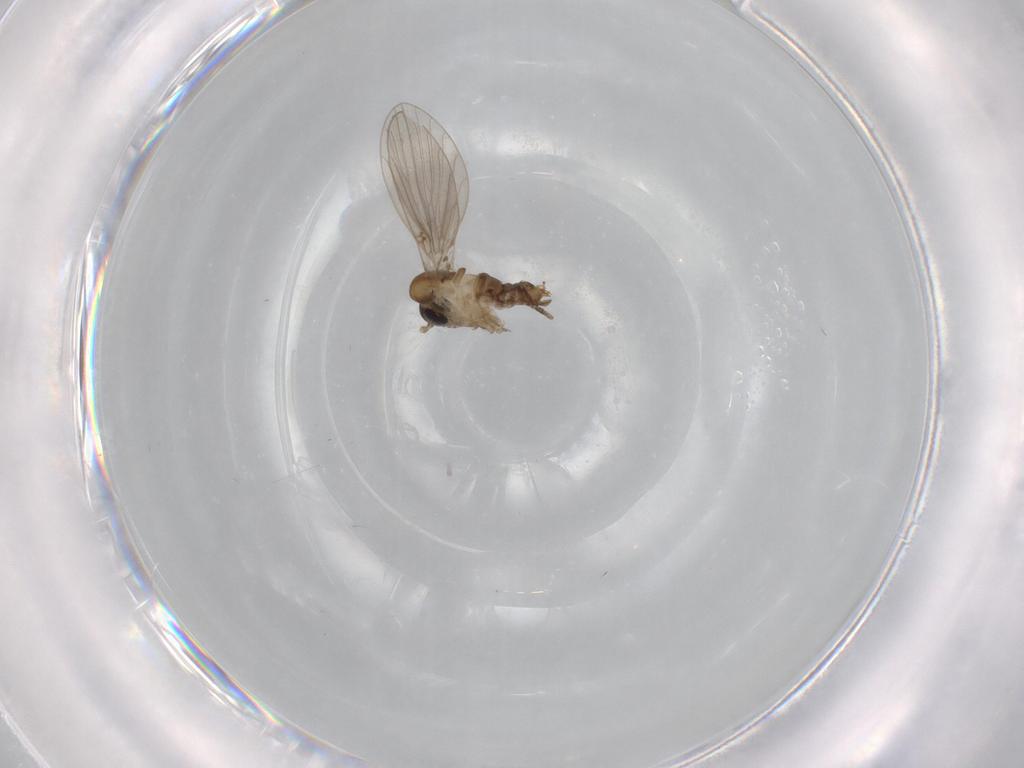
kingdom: Animalia
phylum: Arthropoda
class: Insecta
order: Diptera
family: Psychodidae
